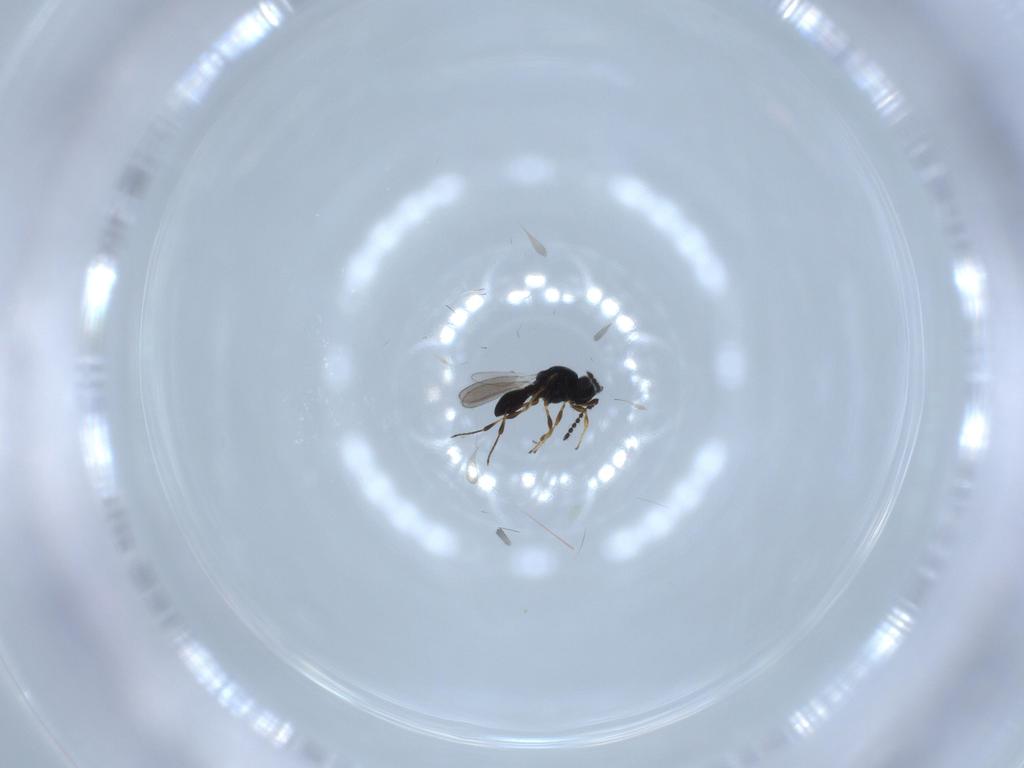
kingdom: Animalia
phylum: Arthropoda
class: Insecta
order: Hymenoptera
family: Platygastridae
